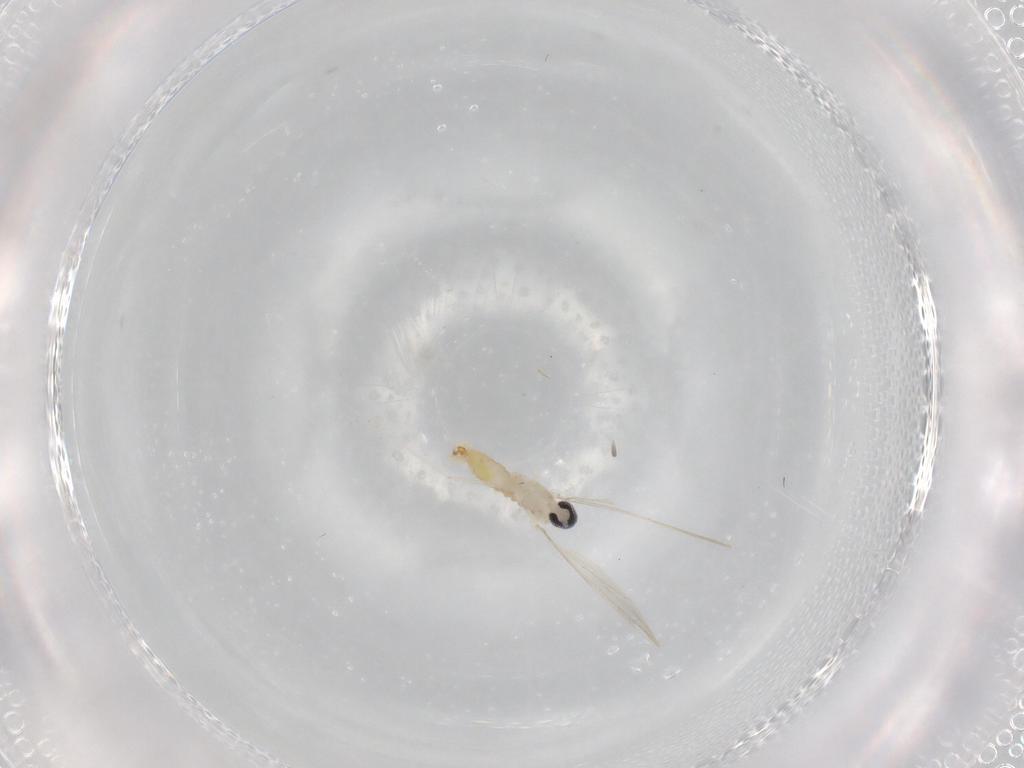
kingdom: Animalia
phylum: Arthropoda
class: Insecta
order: Diptera
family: Cecidomyiidae
